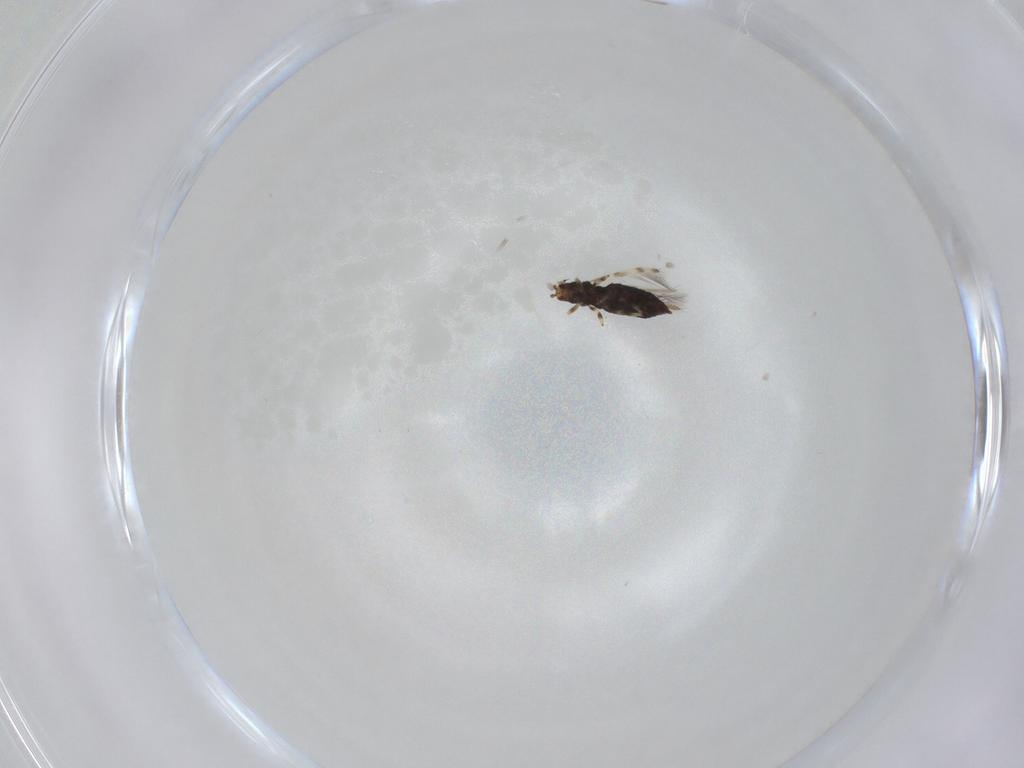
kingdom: Animalia
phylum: Arthropoda
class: Insecta
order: Thysanoptera
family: Thripidae
